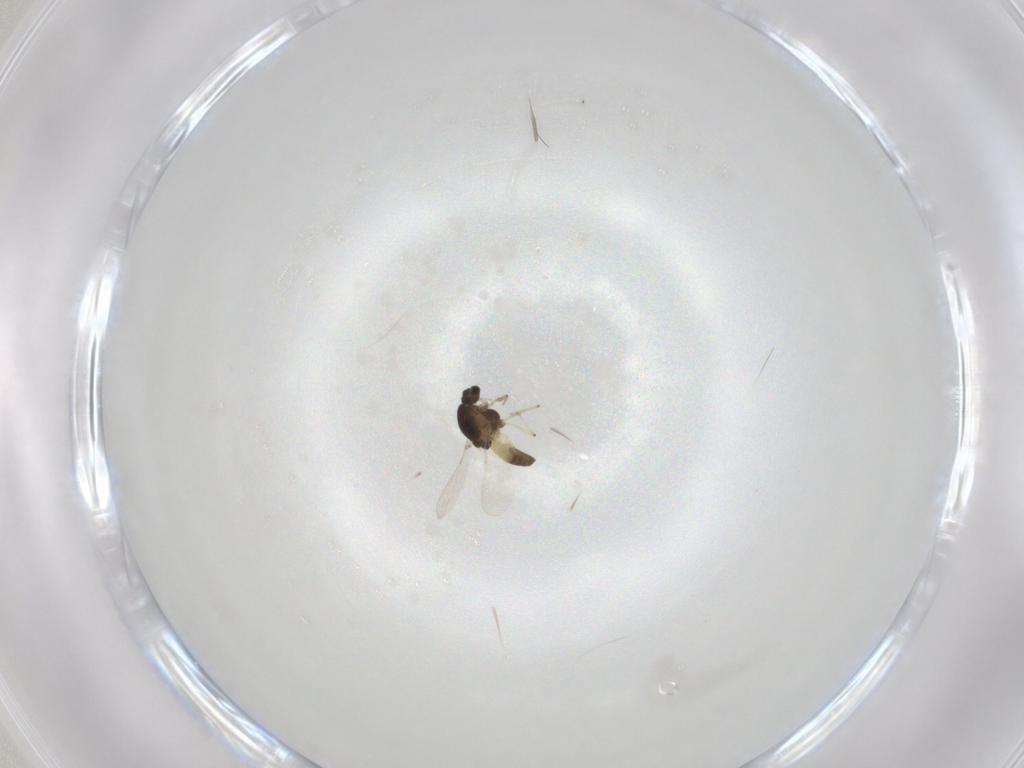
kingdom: Animalia
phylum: Arthropoda
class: Insecta
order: Diptera
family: Chironomidae
